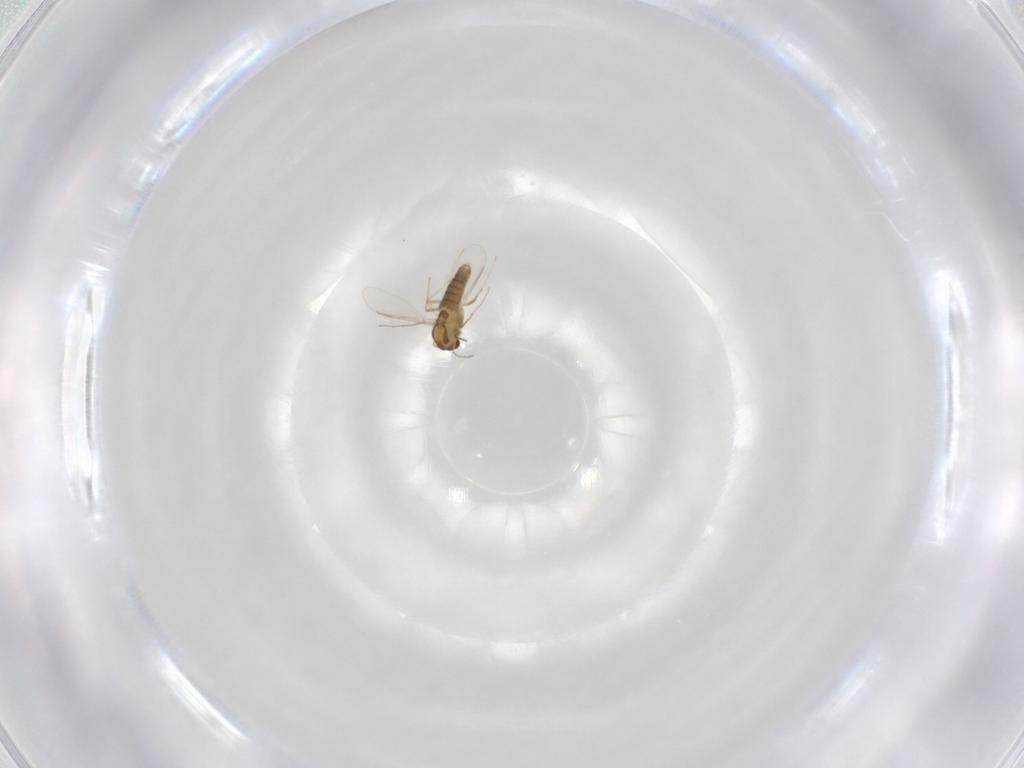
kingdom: Animalia
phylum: Arthropoda
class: Insecta
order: Diptera
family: Chironomidae
